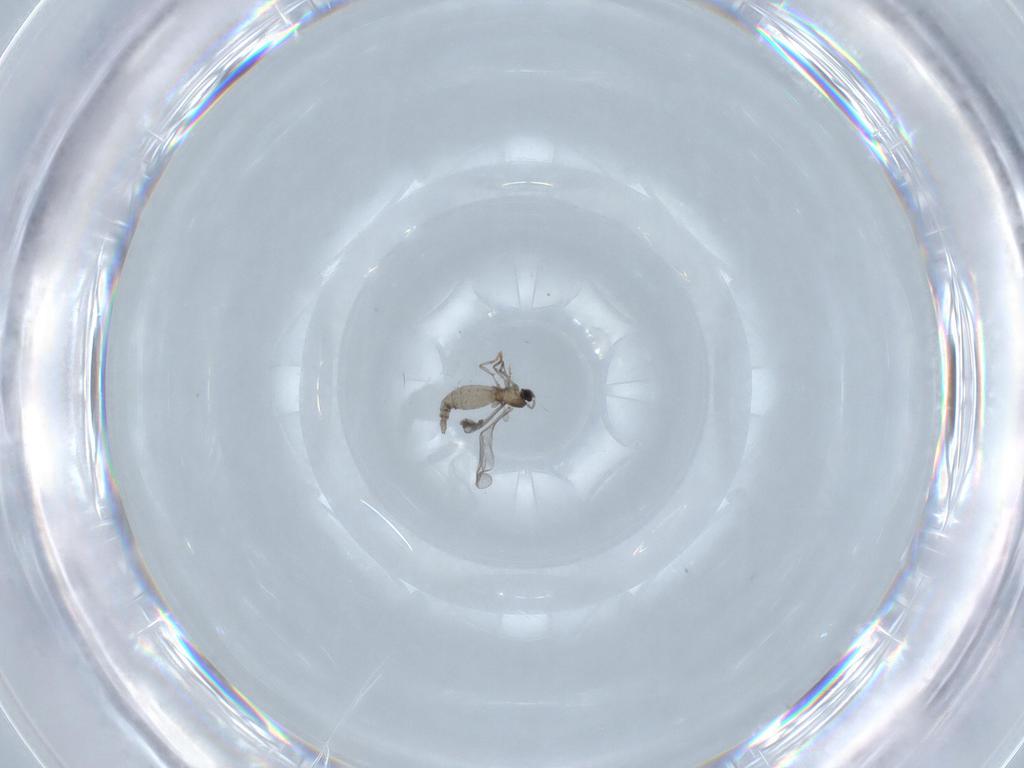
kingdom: Animalia
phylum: Arthropoda
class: Insecta
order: Diptera
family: Cecidomyiidae
